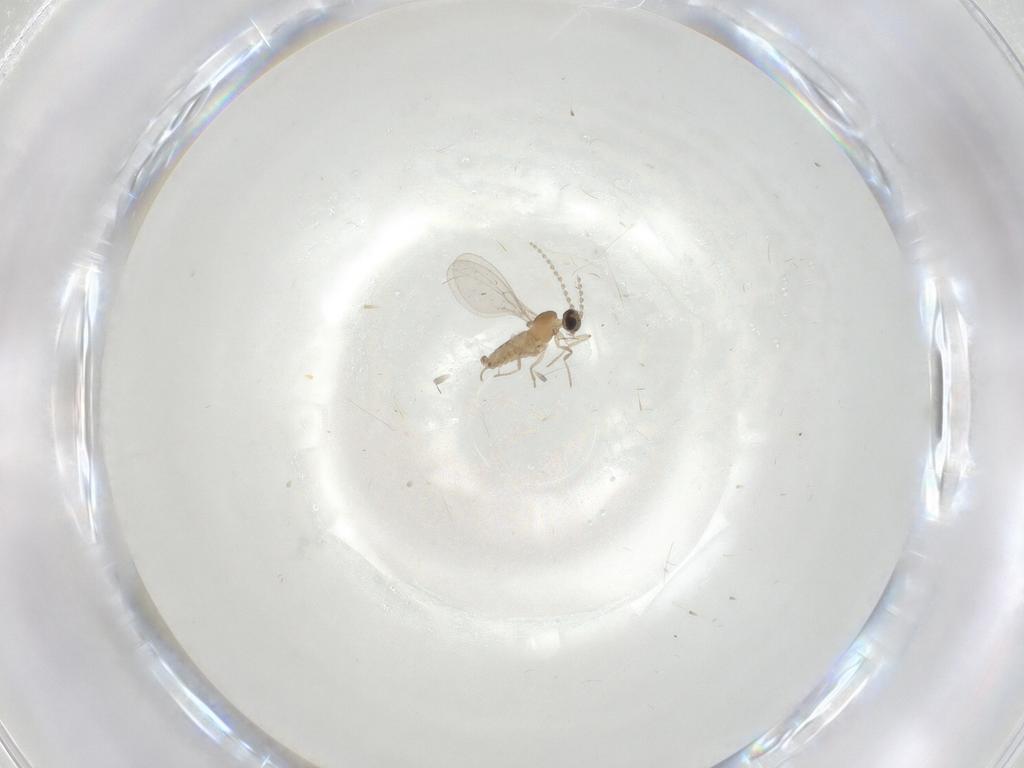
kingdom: Animalia
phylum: Arthropoda
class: Insecta
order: Diptera
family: Cecidomyiidae
